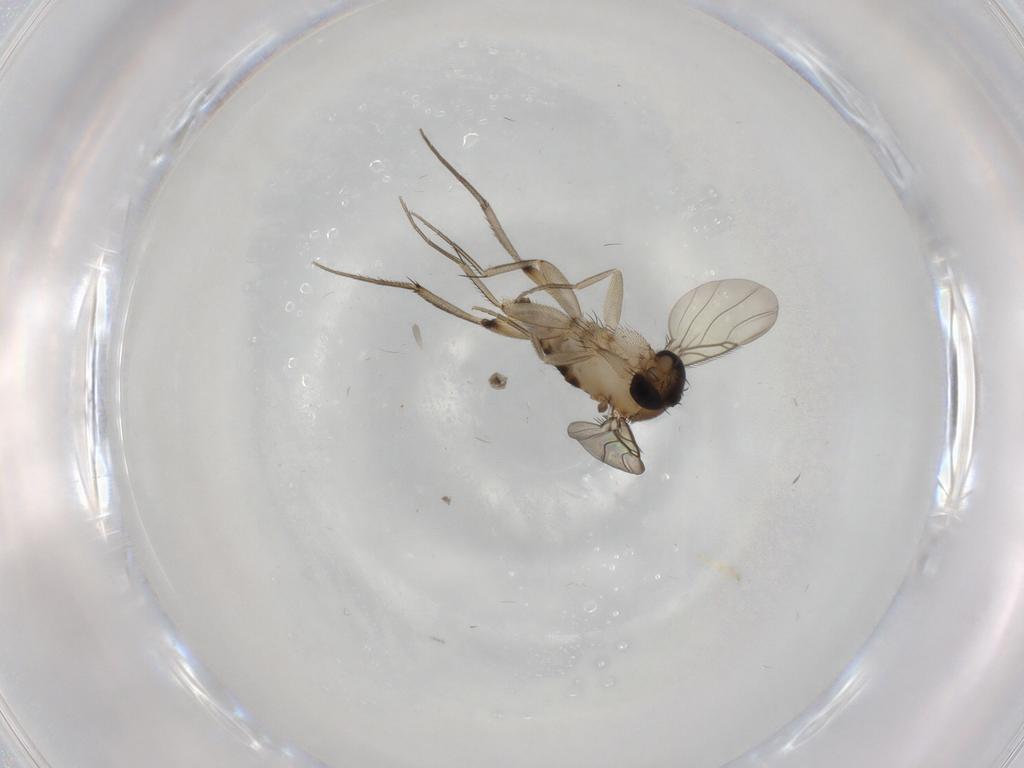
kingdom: Animalia
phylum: Arthropoda
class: Insecta
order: Diptera
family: Phoridae
